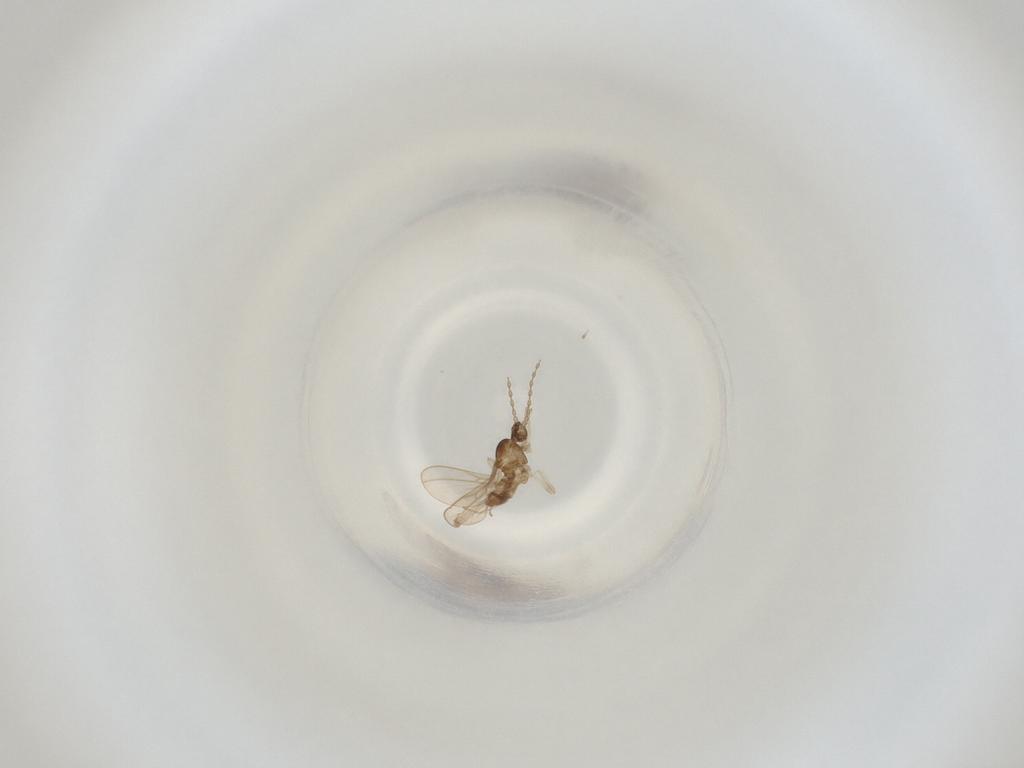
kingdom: Animalia
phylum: Arthropoda
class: Insecta
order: Diptera
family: Cecidomyiidae
